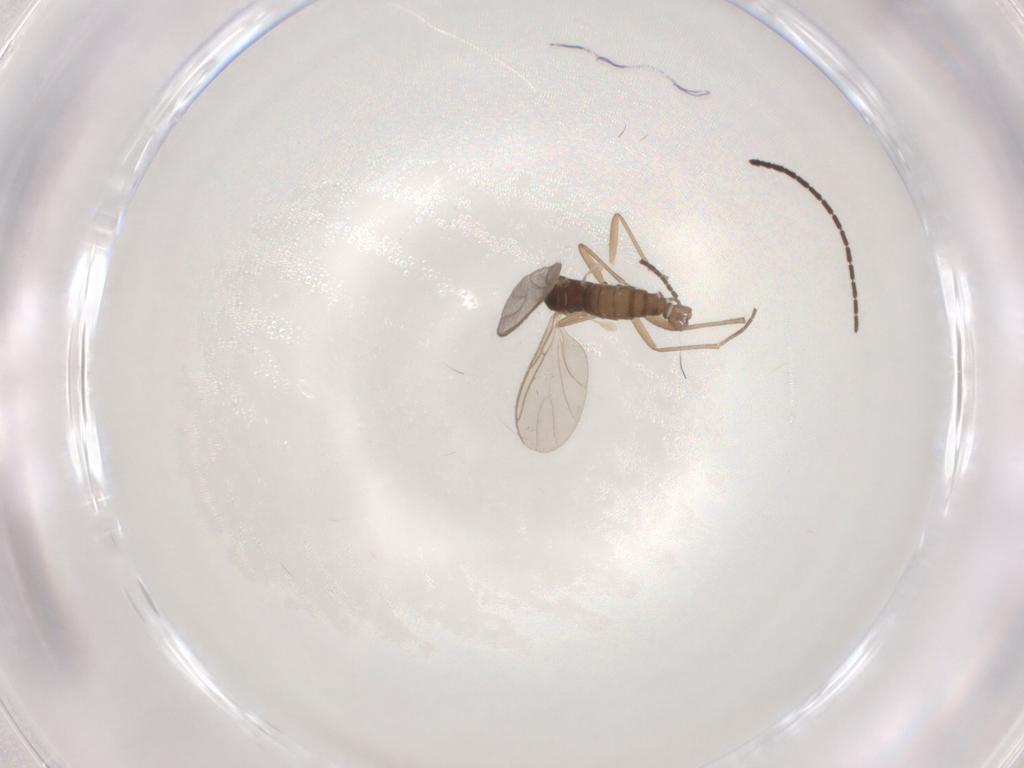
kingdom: Animalia
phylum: Arthropoda
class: Insecta
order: Diptera
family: Sciaridae
